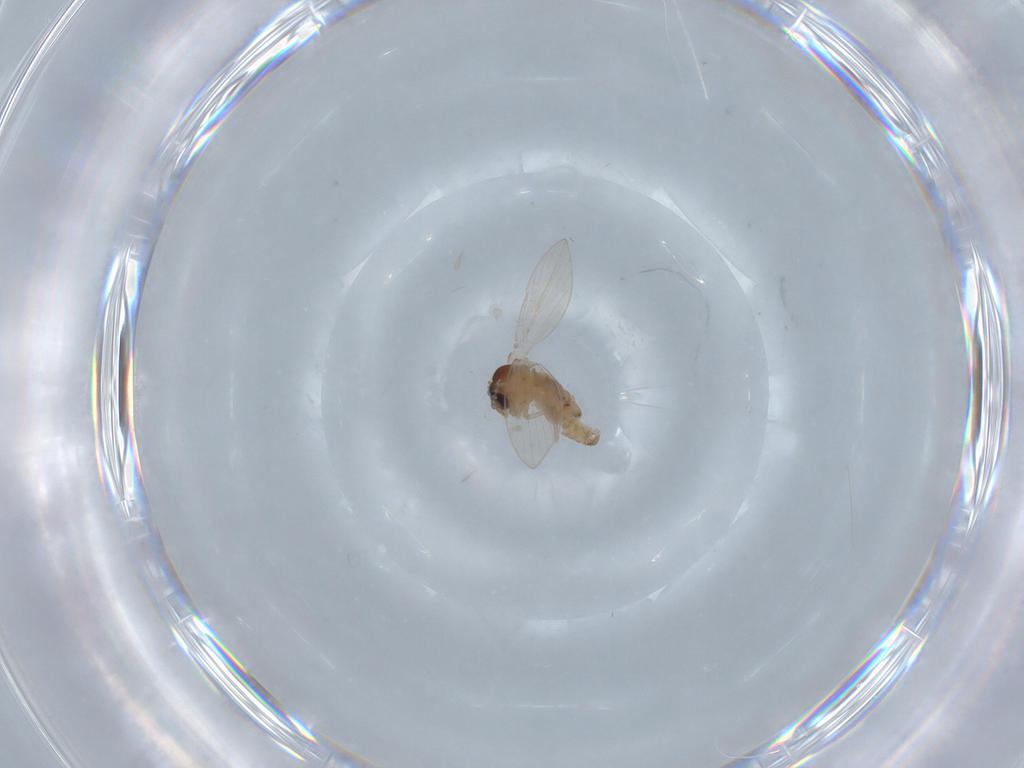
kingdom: Animalia
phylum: Arthropoda
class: Insecta
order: Diptera
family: Psychodidae
